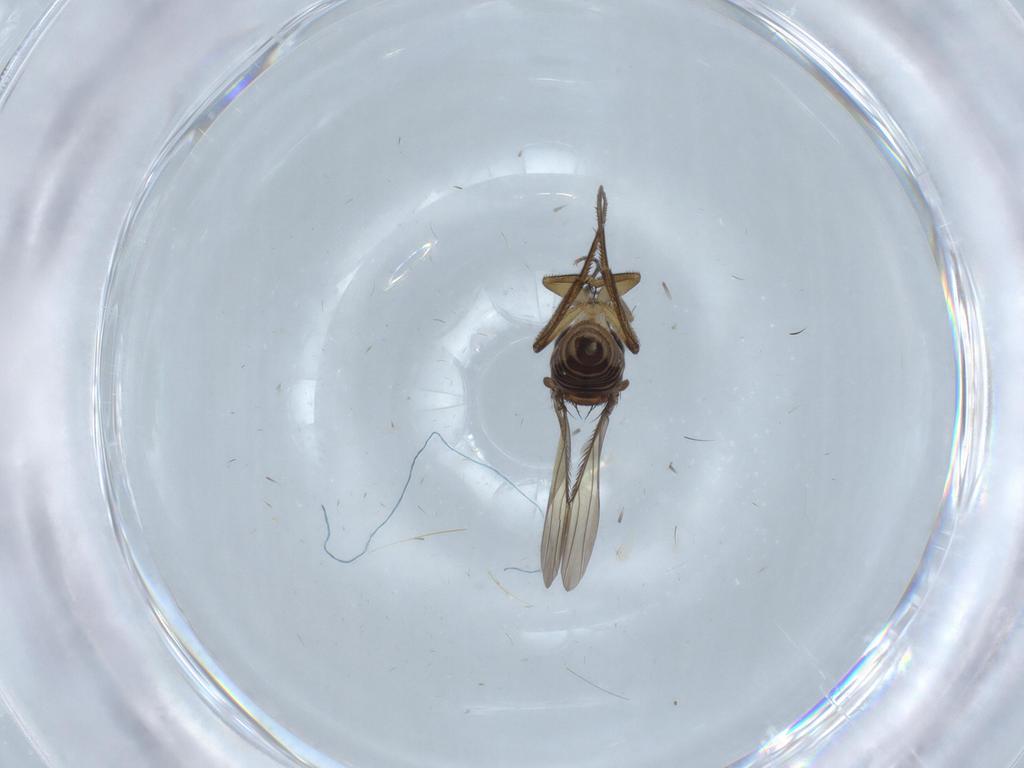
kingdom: Animalia
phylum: Arthropoda
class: Insecta
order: Diptera
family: Phoridae
